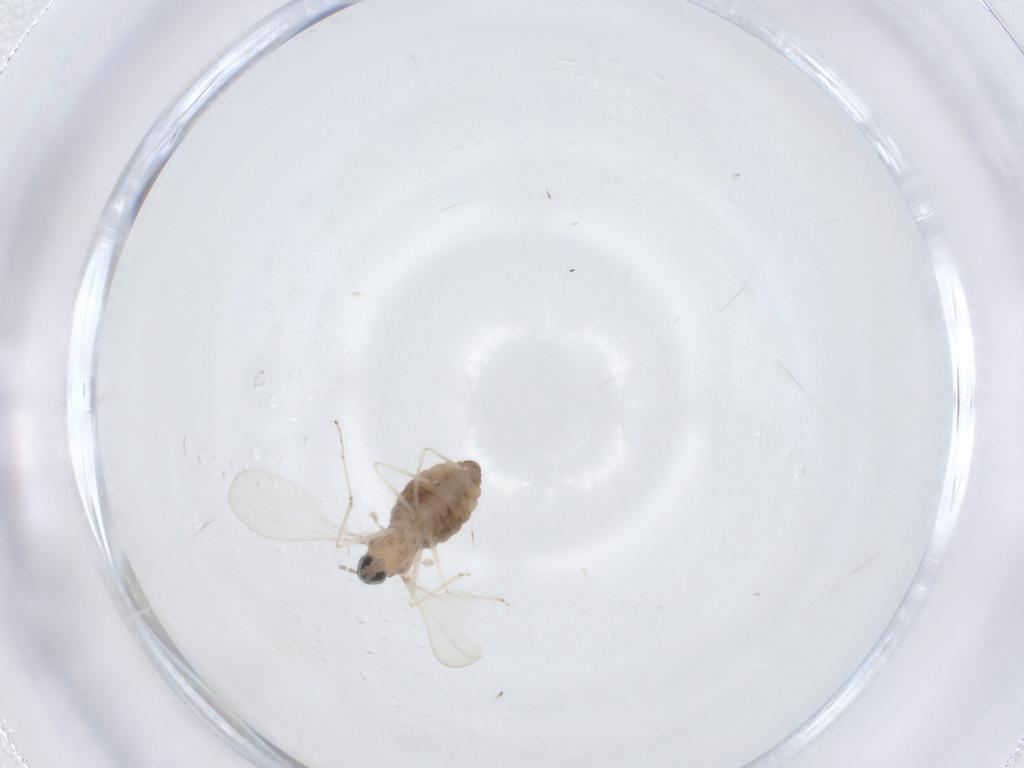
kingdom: Animalia
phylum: Arthropoda
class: Insecta
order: Diptera
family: Cecidomyiidae
